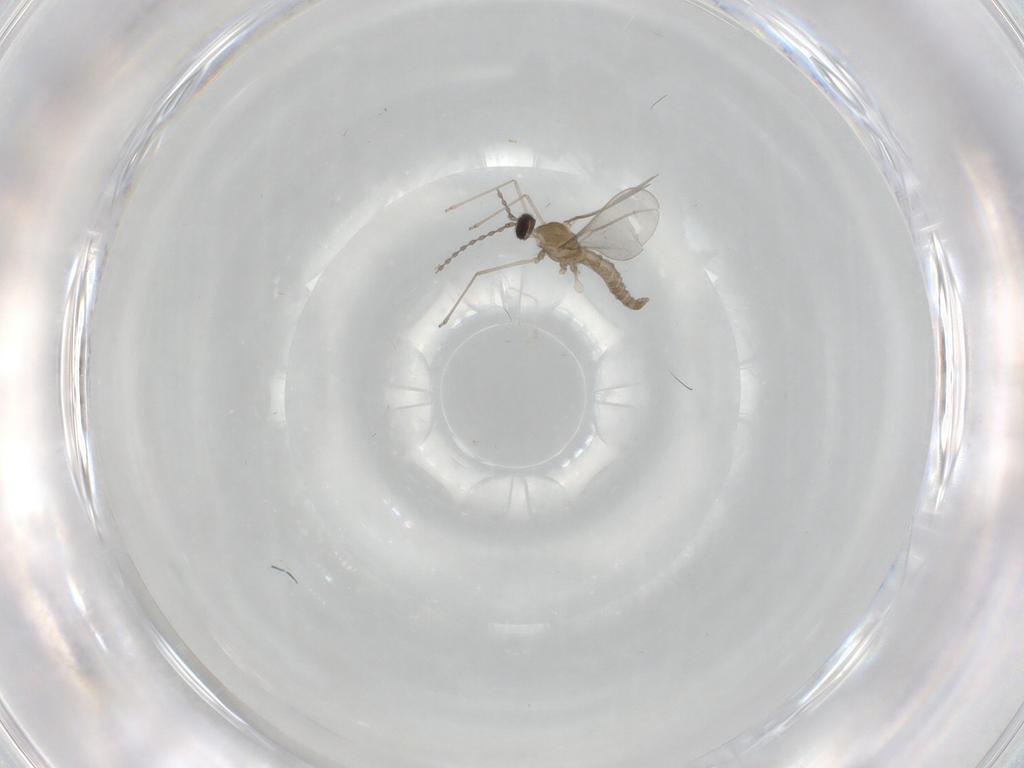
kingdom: Animalia
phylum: Arthropoda
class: Insecta
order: Diptera
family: Cecidomyiidae
